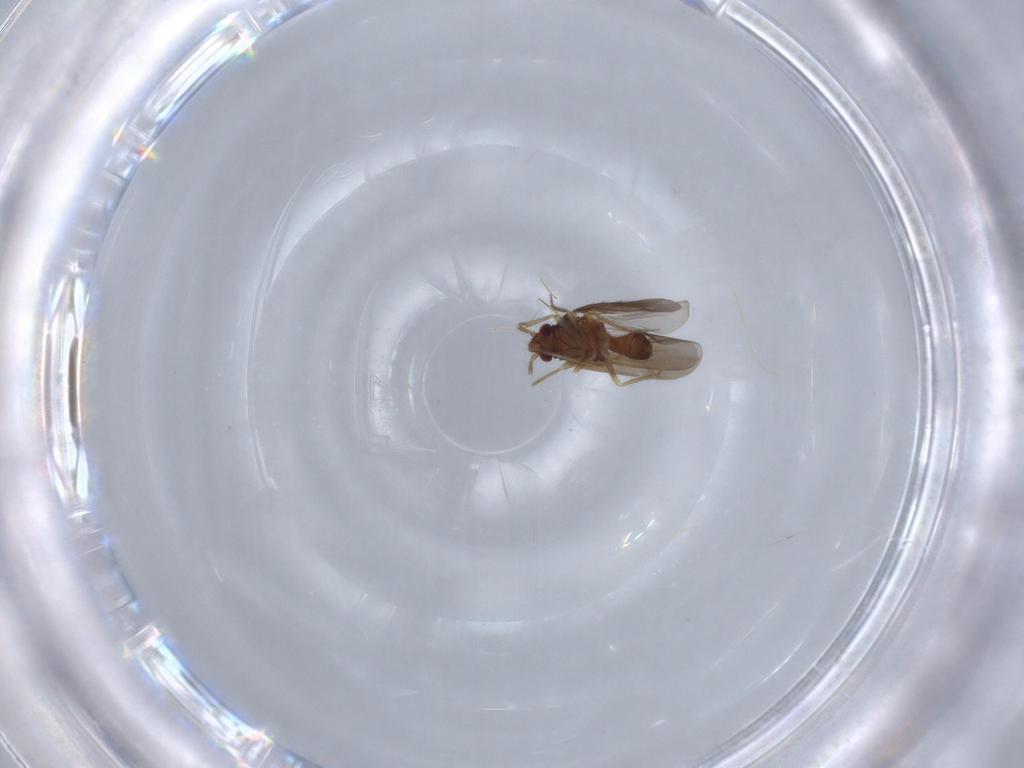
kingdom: Animalia
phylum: Arthropoda
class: Insecta
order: Hemiptera
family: Ceratocombidae
